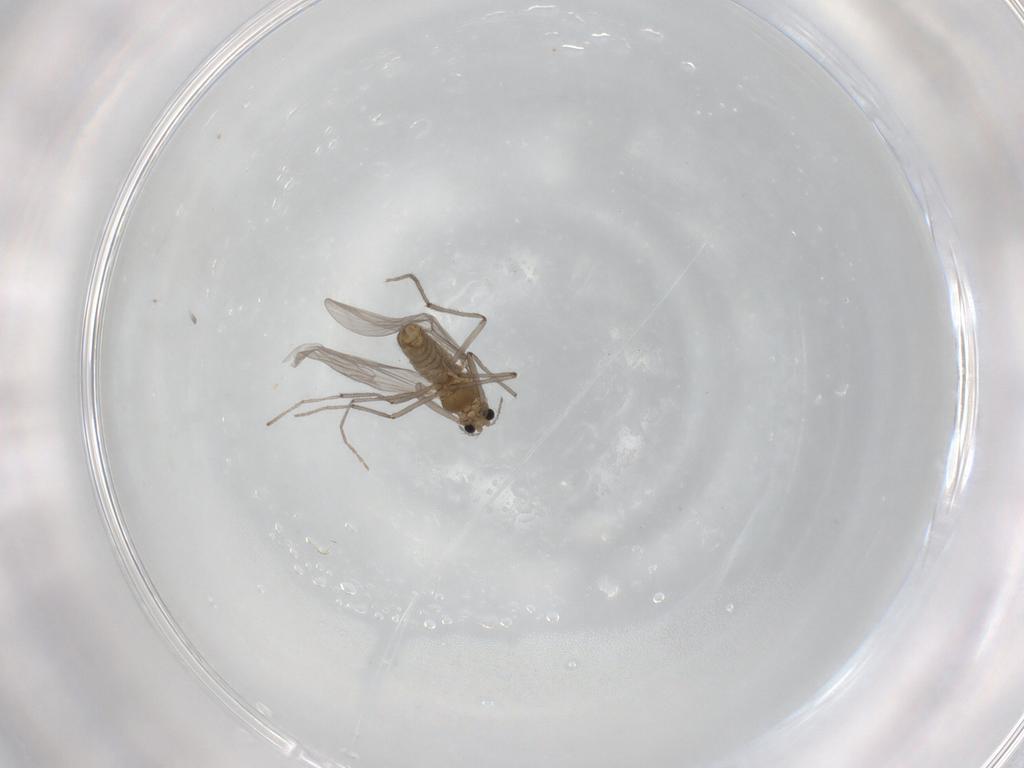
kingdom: Animalia
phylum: Arthropoda
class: Insecta
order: Diptera
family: Chironomidae
